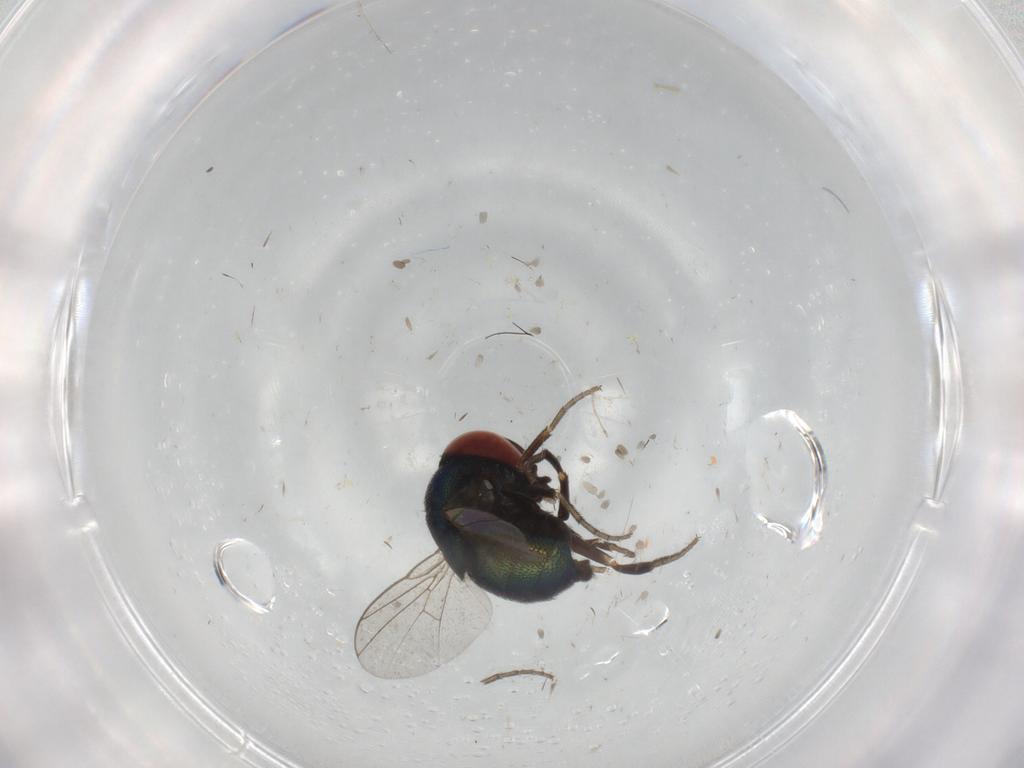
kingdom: Animalia
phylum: Arthropoda
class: Insecta
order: Diptera
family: Cryptochetidae
